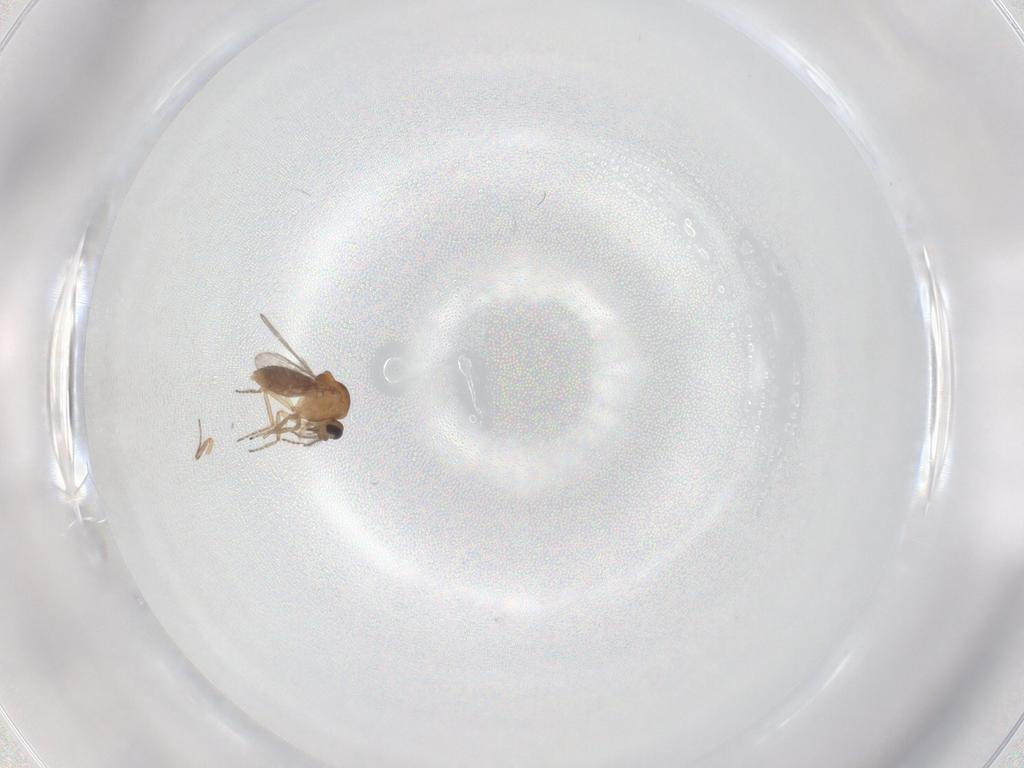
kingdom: Animalia
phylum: Arthropoda
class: Insecta
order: Diptera
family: Ceratopogonidae
